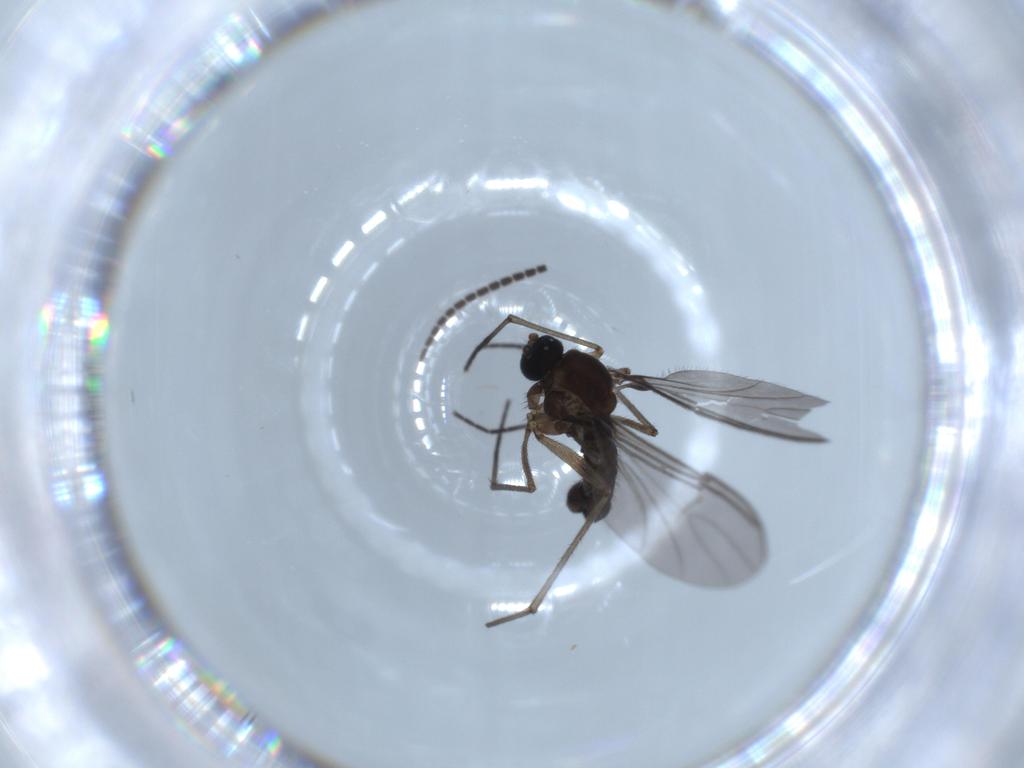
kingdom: Animalia
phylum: Arthropoda
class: Insecta
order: Diptera
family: Sciaridae
